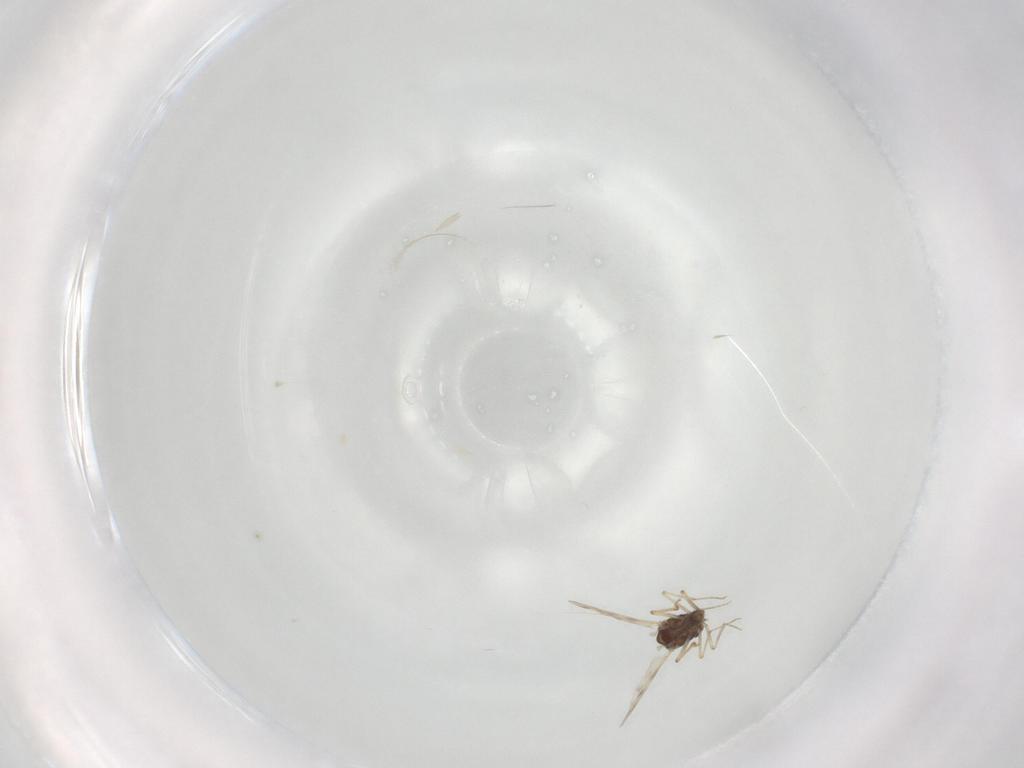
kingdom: Animalia
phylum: Arthropoda
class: Insecta
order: Diptera
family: Ceratopogonidae
